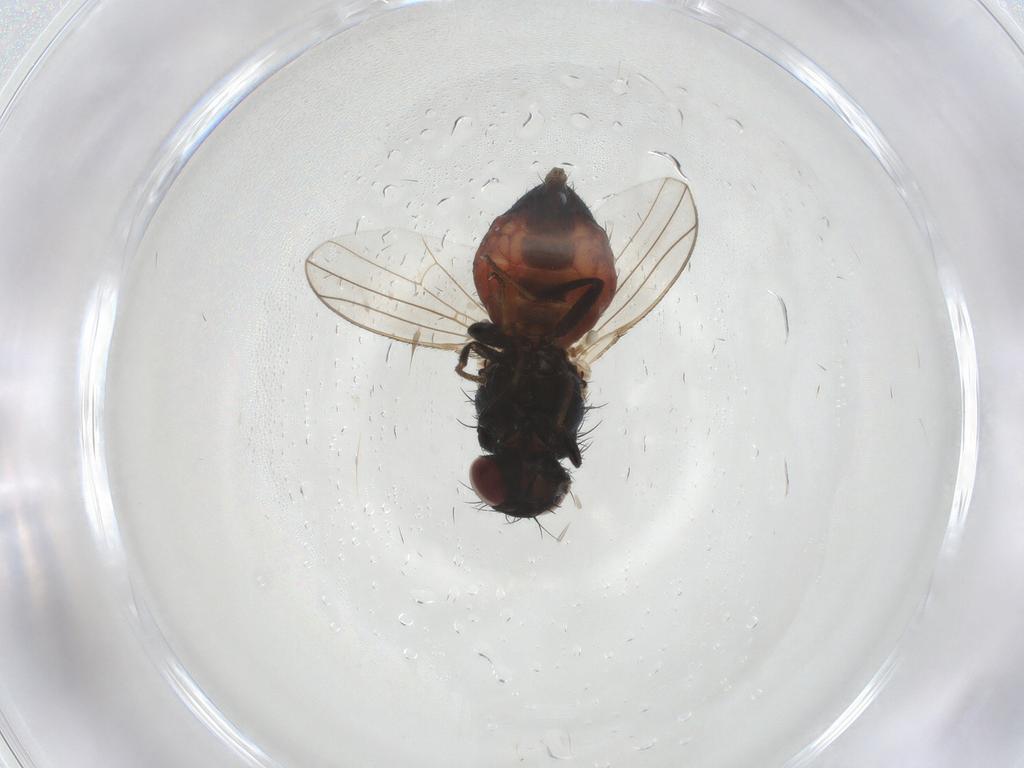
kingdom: Animalia
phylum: Arthropoda
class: Insecta
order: Diptera
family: Carnidae
